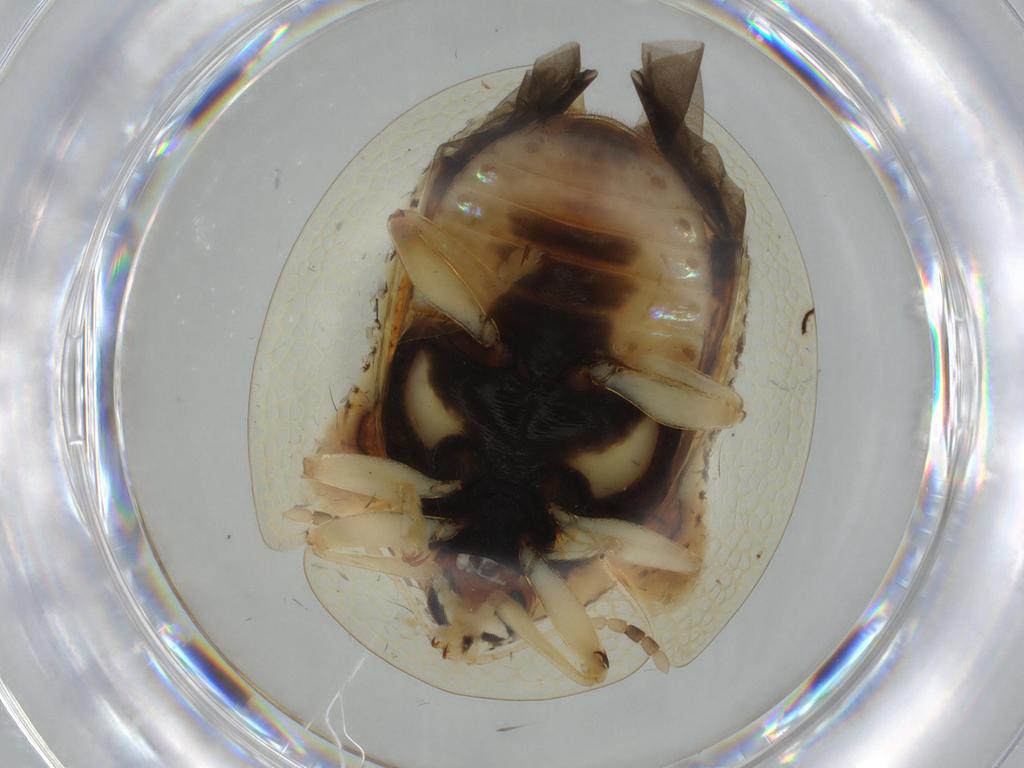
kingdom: Animalia
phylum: Arthropoda
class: Insecta
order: Coleoptera
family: Chrysomelidae
